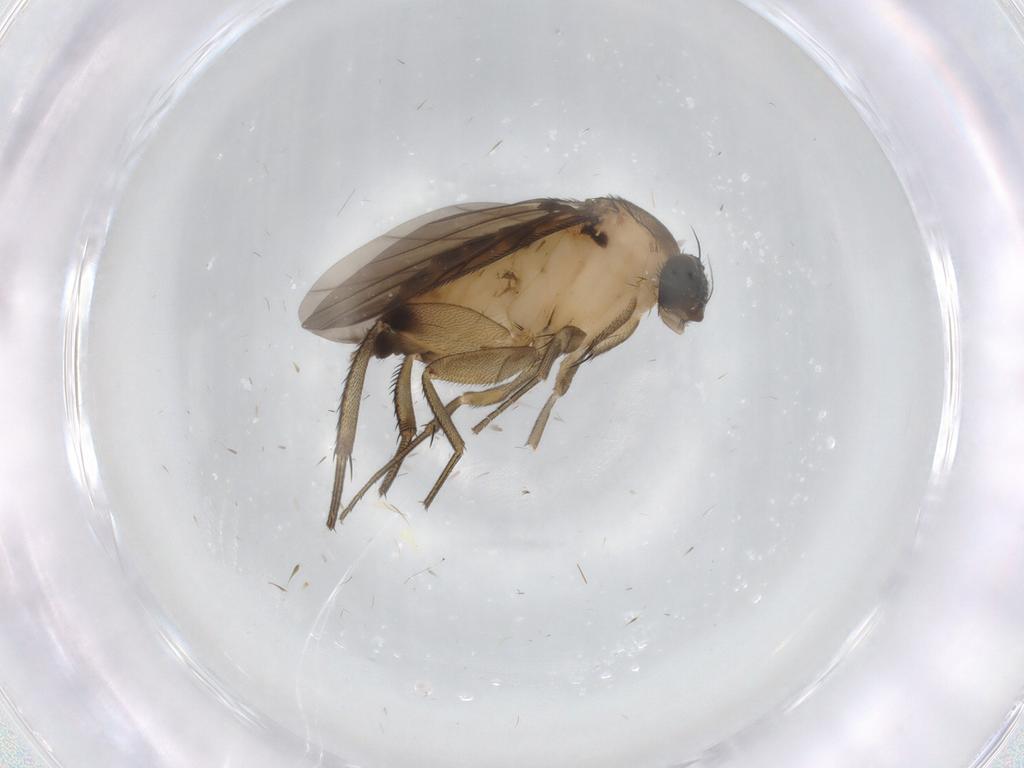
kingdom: Animalia
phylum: Arthropoda
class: Insecta
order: Diptera
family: Phoridae
